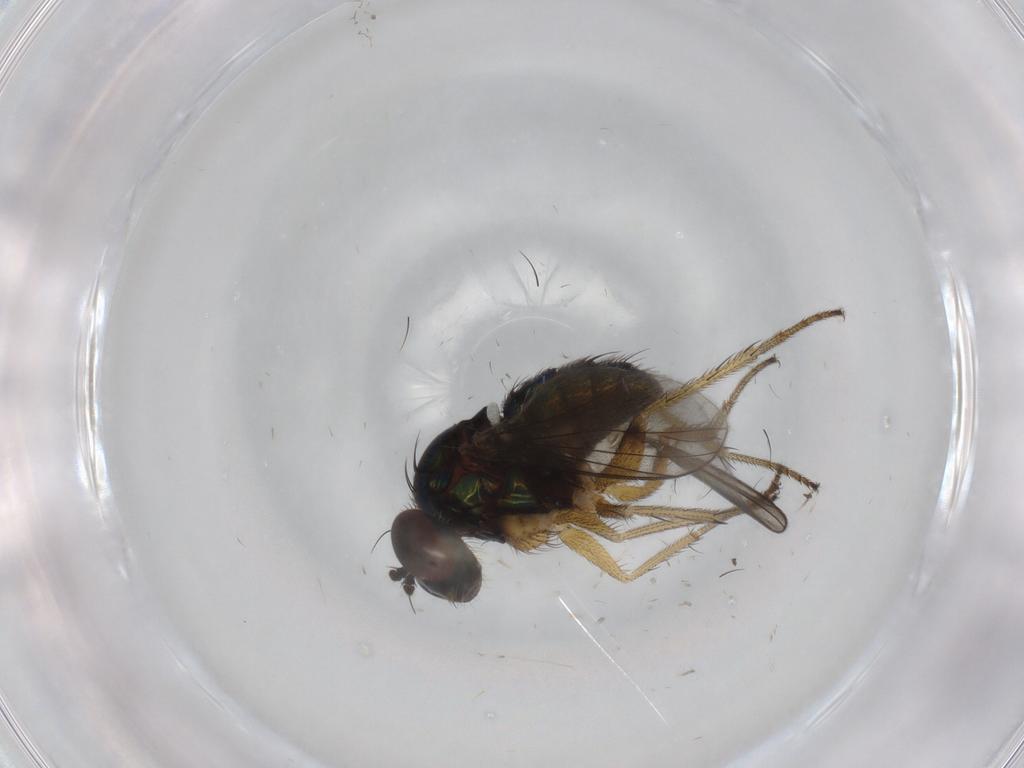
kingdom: Animalia
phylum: Arthropoda
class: Insecta
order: Diptera
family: Dolichopodidae
